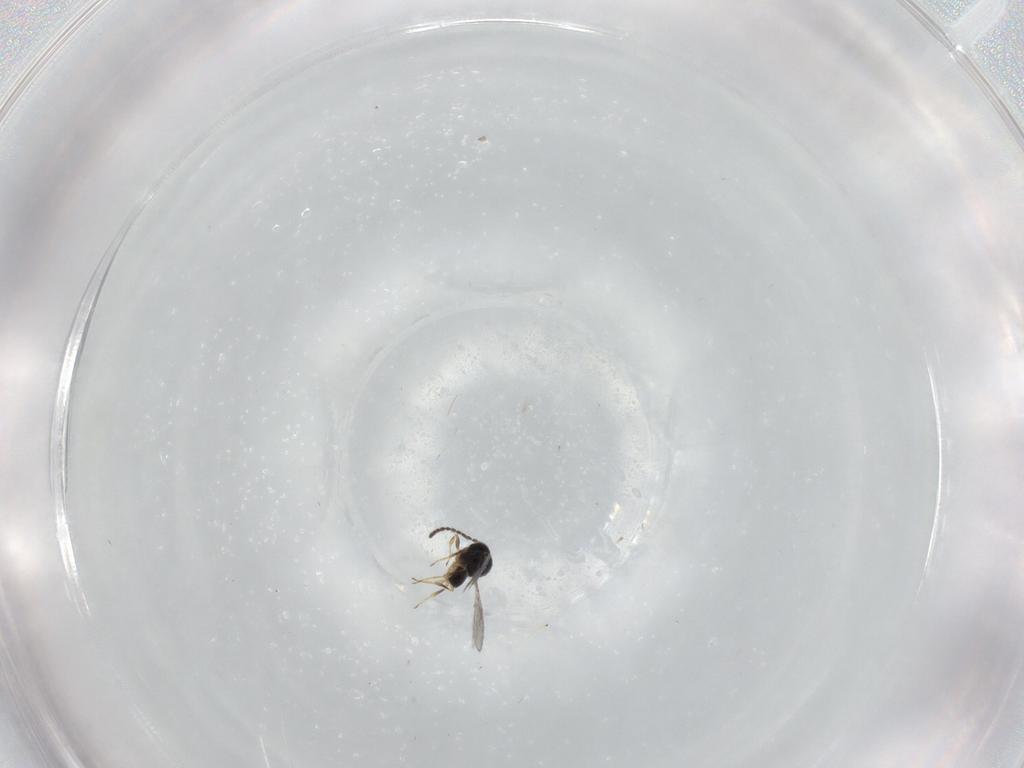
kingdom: Animalia
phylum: Arthropoda
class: Insecta
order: Hymenoptera
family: Scelionidae
